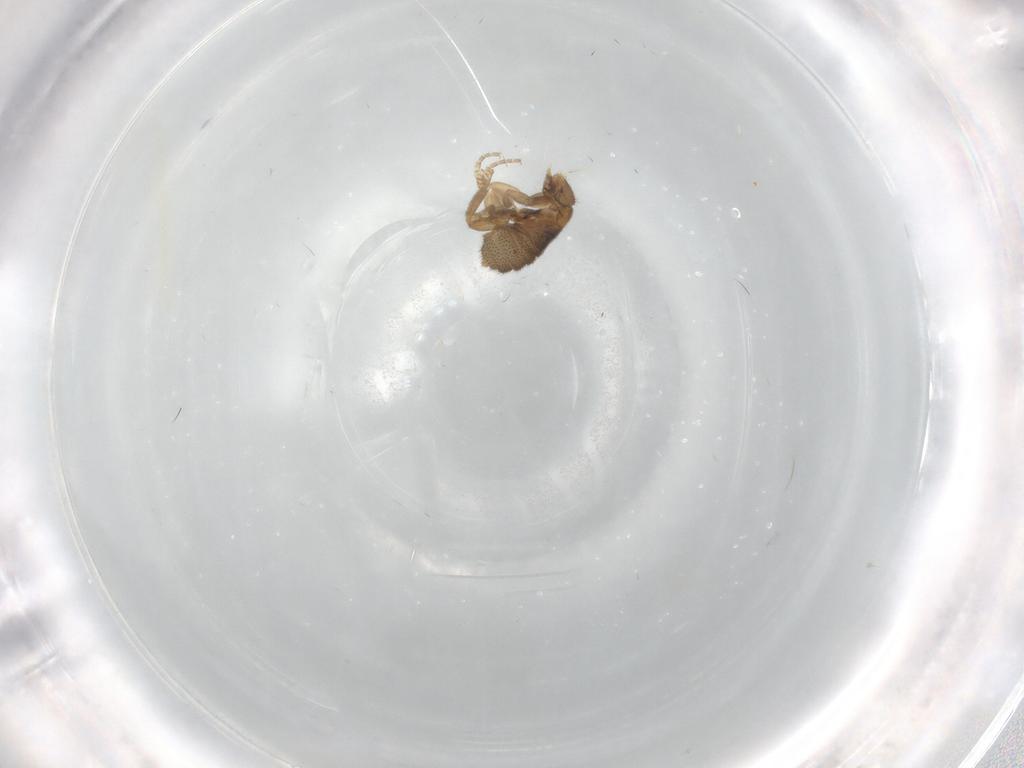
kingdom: Animalia
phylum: Arthropoda
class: Insecta
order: Diptera
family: Phoridae
